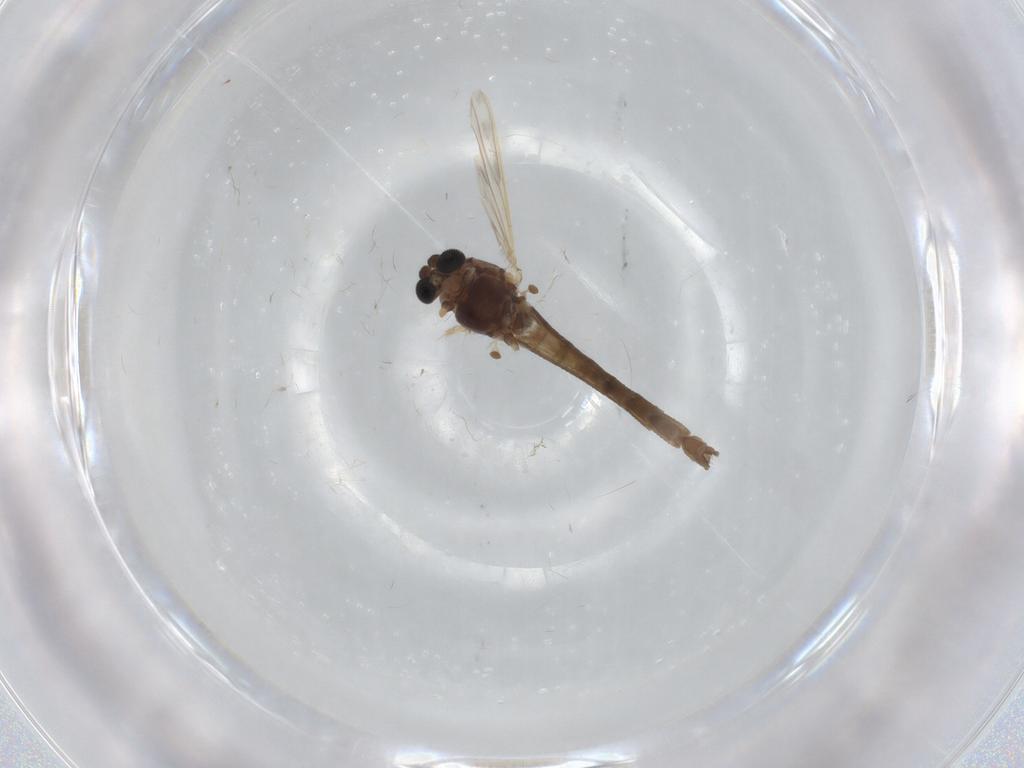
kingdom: Animalia
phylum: Arthropoda
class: Insecta
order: Diptera
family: Chironomidae
